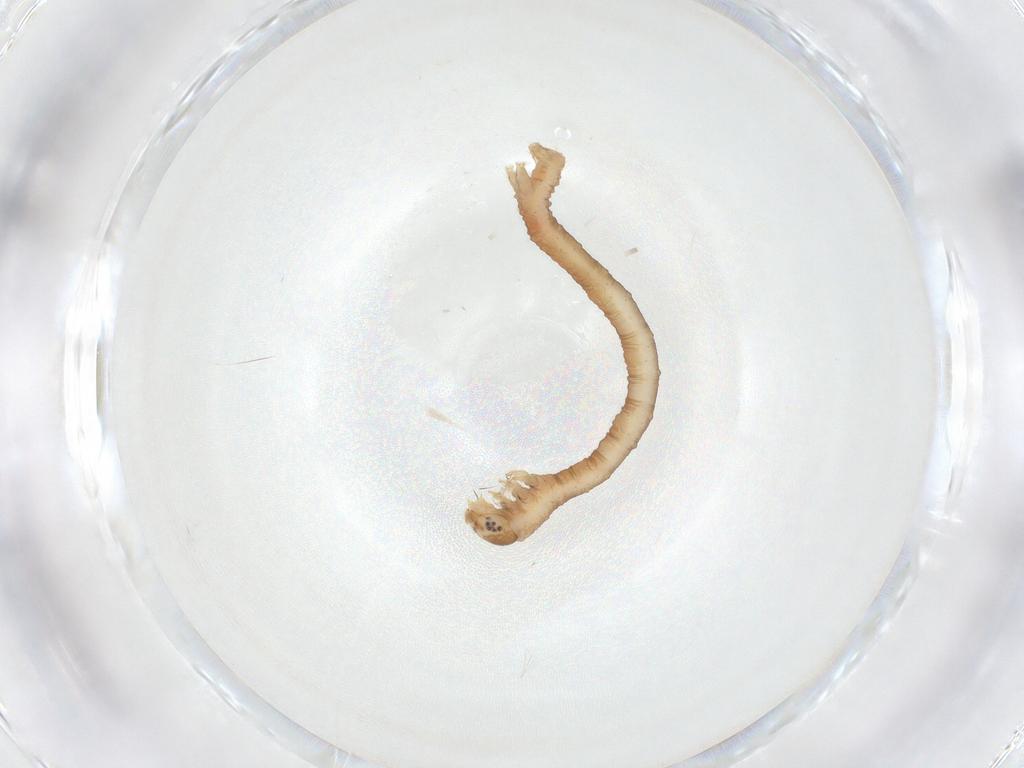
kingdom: Animalia
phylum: Arthropoda
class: Insecta
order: Lepidoptera
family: Geometridae
